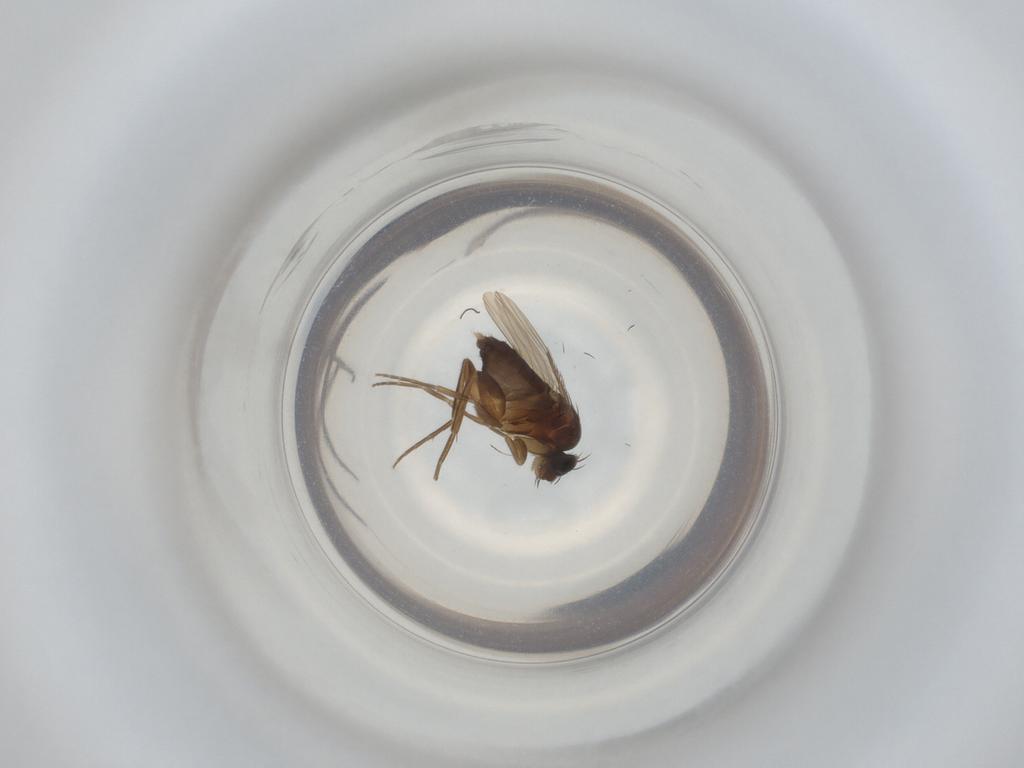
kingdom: Animalia
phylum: Arthropoda
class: Insecta
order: Diptera
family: Phoridae
